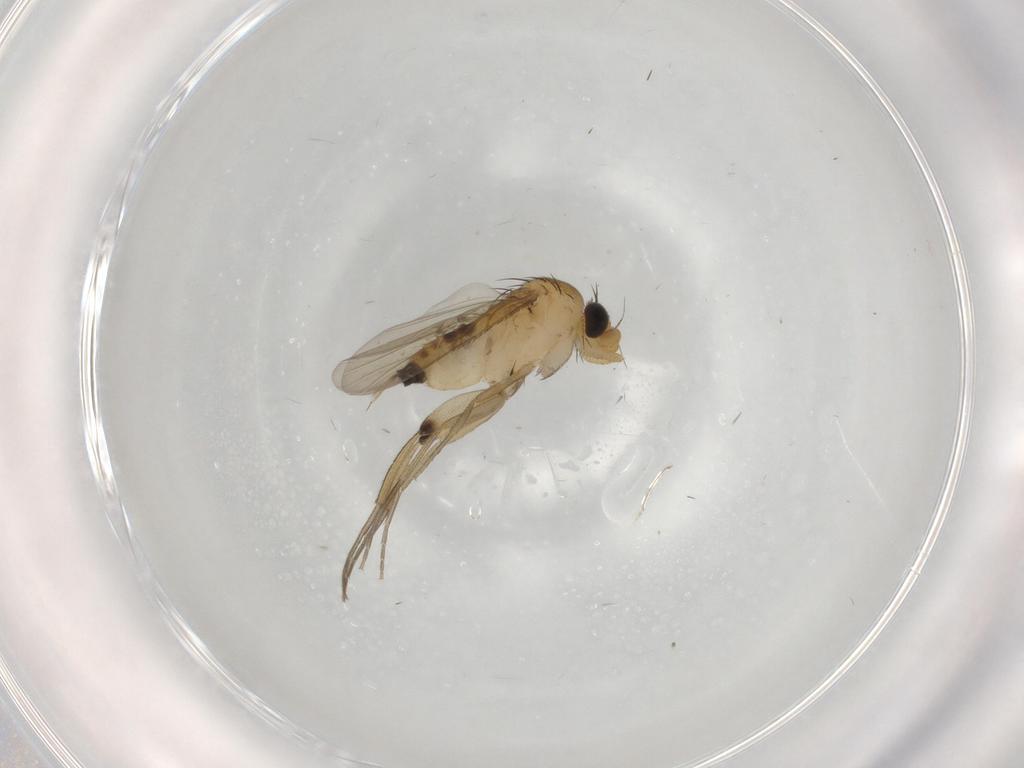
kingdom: Animalia
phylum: Arthropoda
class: Insecta
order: Diptera
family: Phoridae
